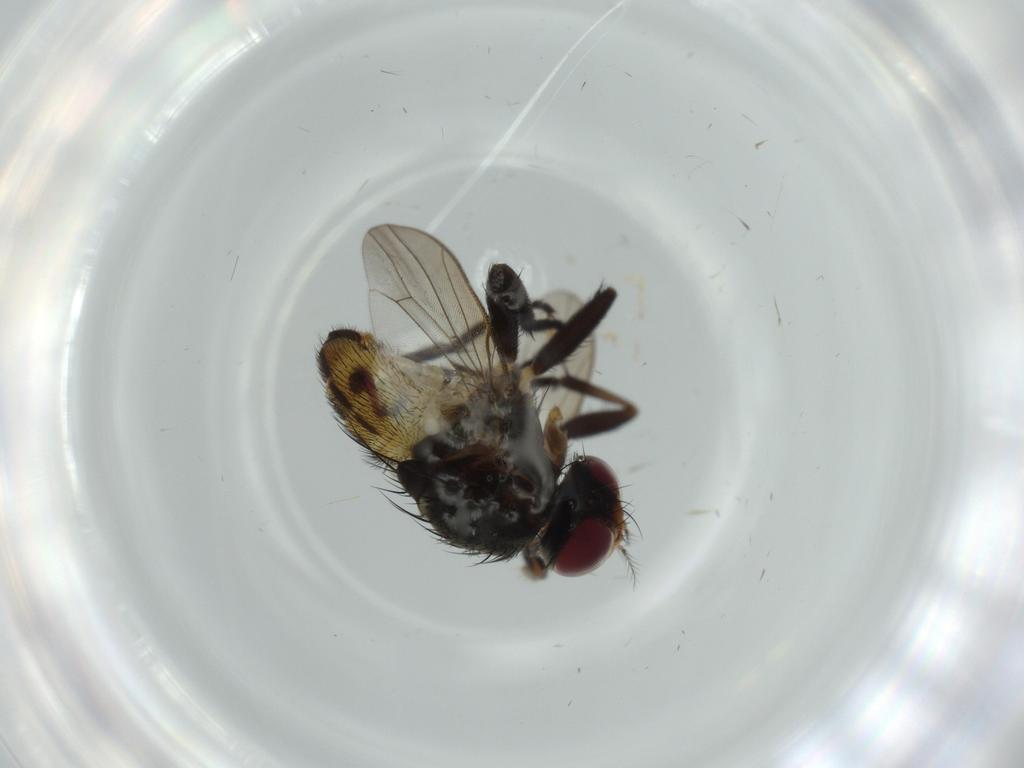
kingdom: Animalia
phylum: Arthropoda
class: Insecta
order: Diptera
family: Anthomyiidae
